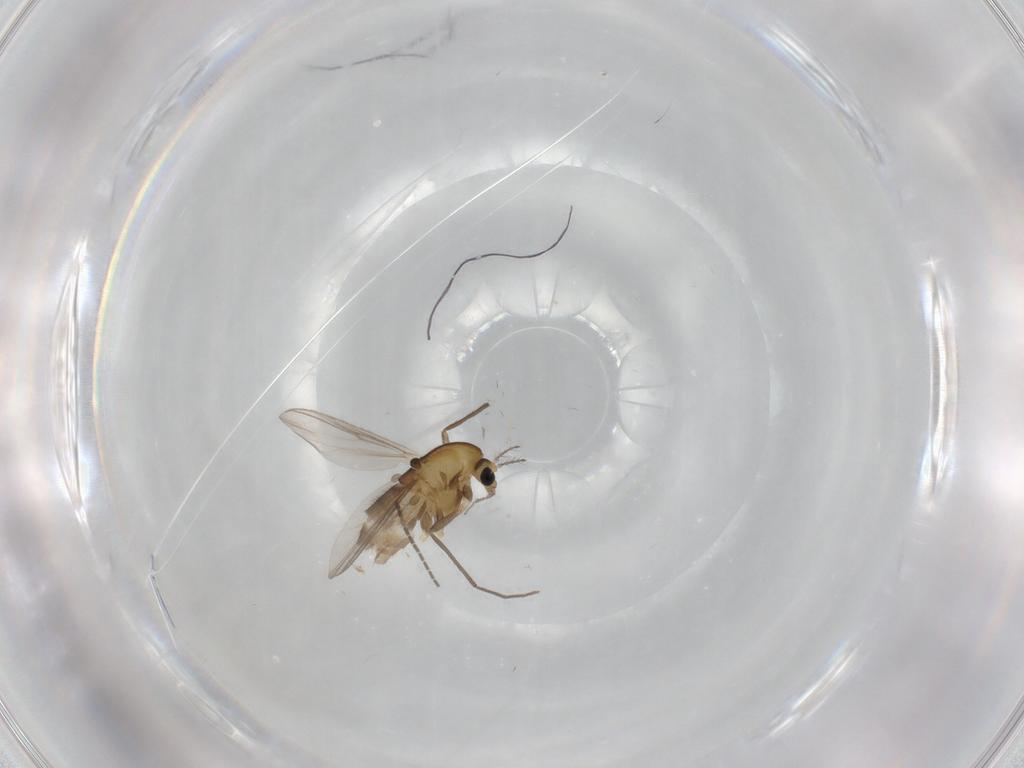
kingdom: Animalia
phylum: Arthropoda
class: Insecta
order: Diptera
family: Chironomidae
